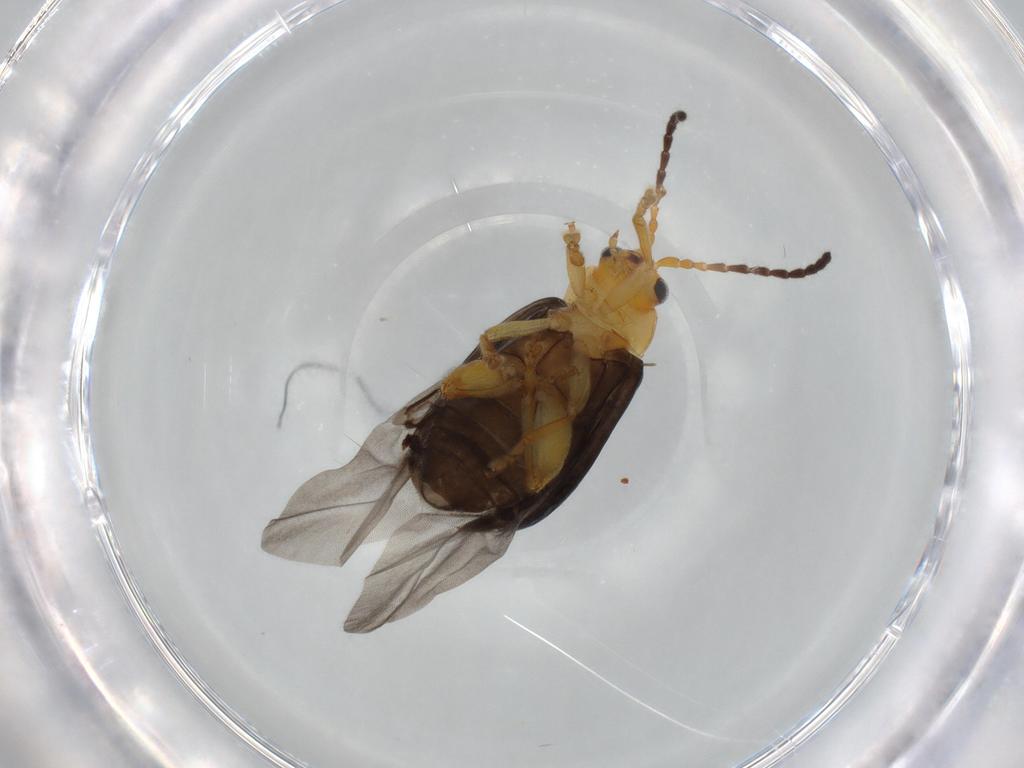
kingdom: Animalia
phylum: Arthropoda
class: Insecta
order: Coleoptera
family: Chrysomelidae
